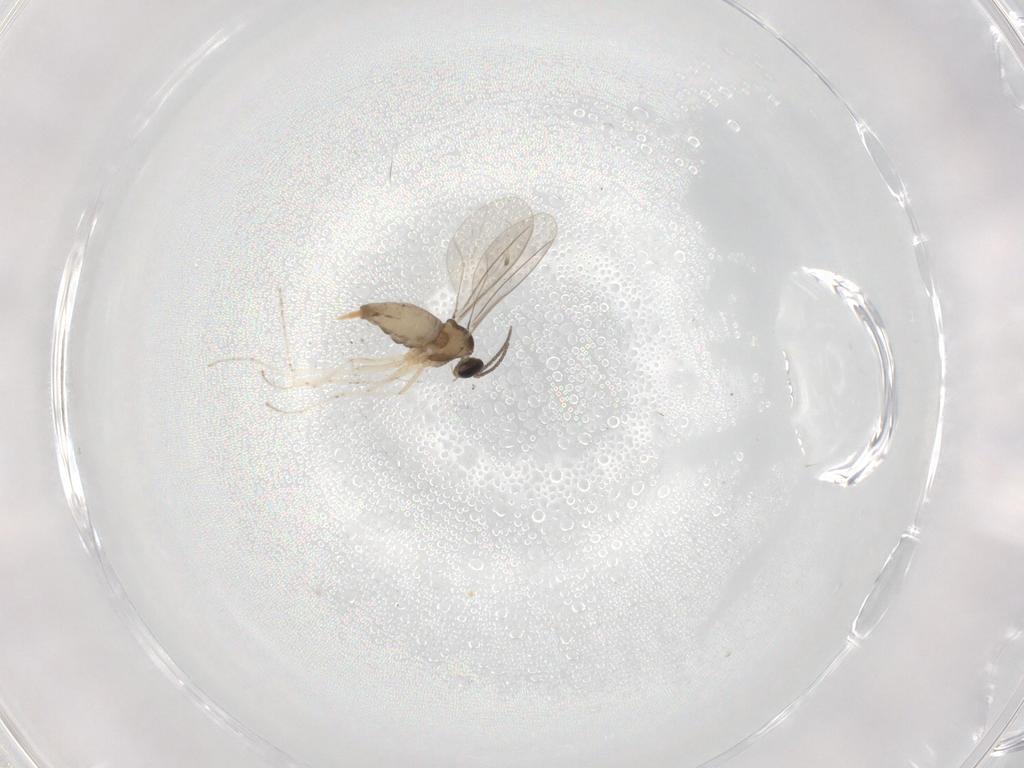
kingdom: Animalia
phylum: Arthropoda
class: Insecta
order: Diptera
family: Cecidomyiidae
